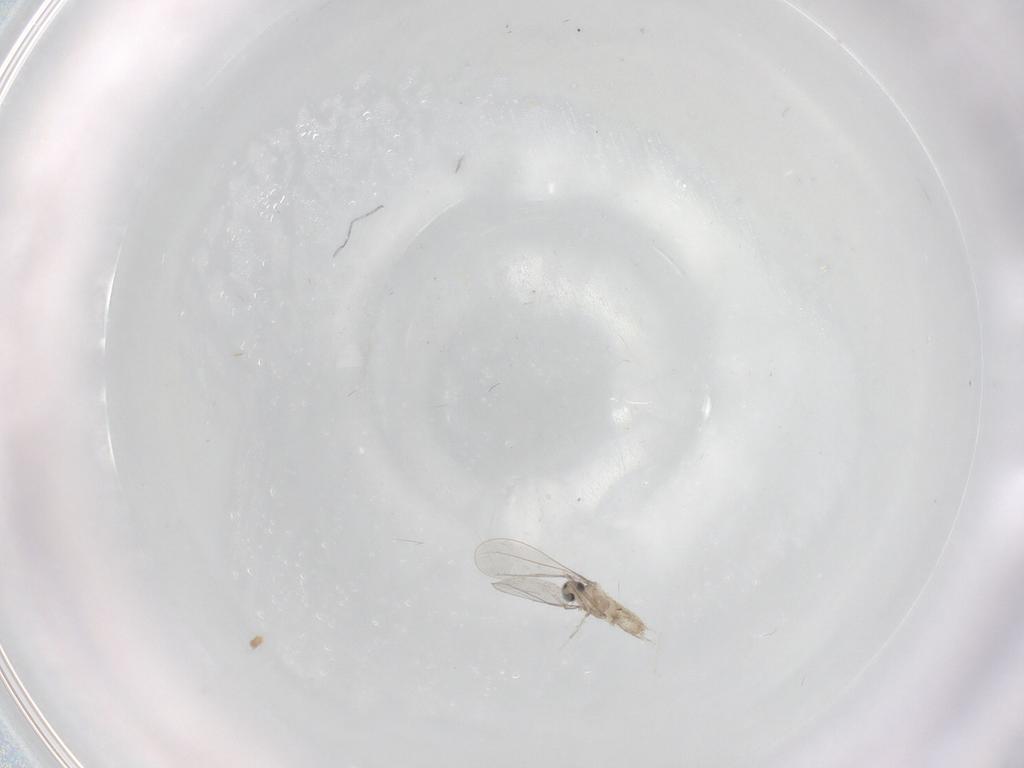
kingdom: Animalia
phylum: Arthropoda
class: Insecta
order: Diptera
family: Cecidomyiidae
